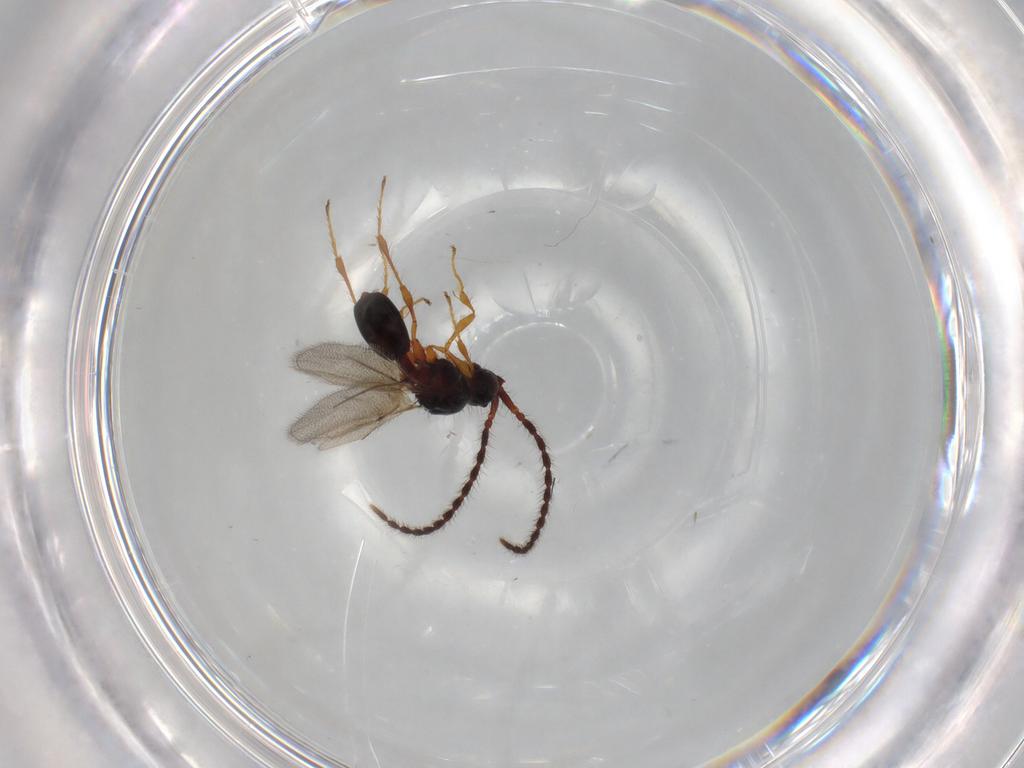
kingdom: Animalia
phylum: Arthropoda
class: Insecta
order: Hymenoptera
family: Diapriidae
